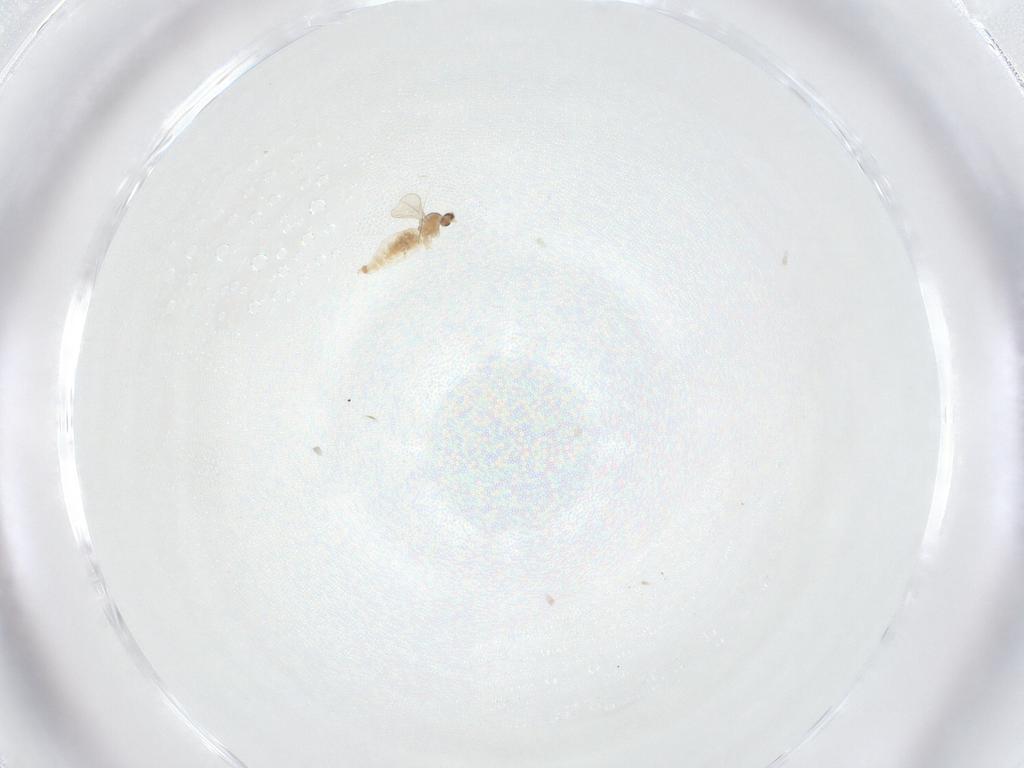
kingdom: Animalia
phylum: Arthropoda
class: Insecta
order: Diptera
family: Cecidomyiidae
